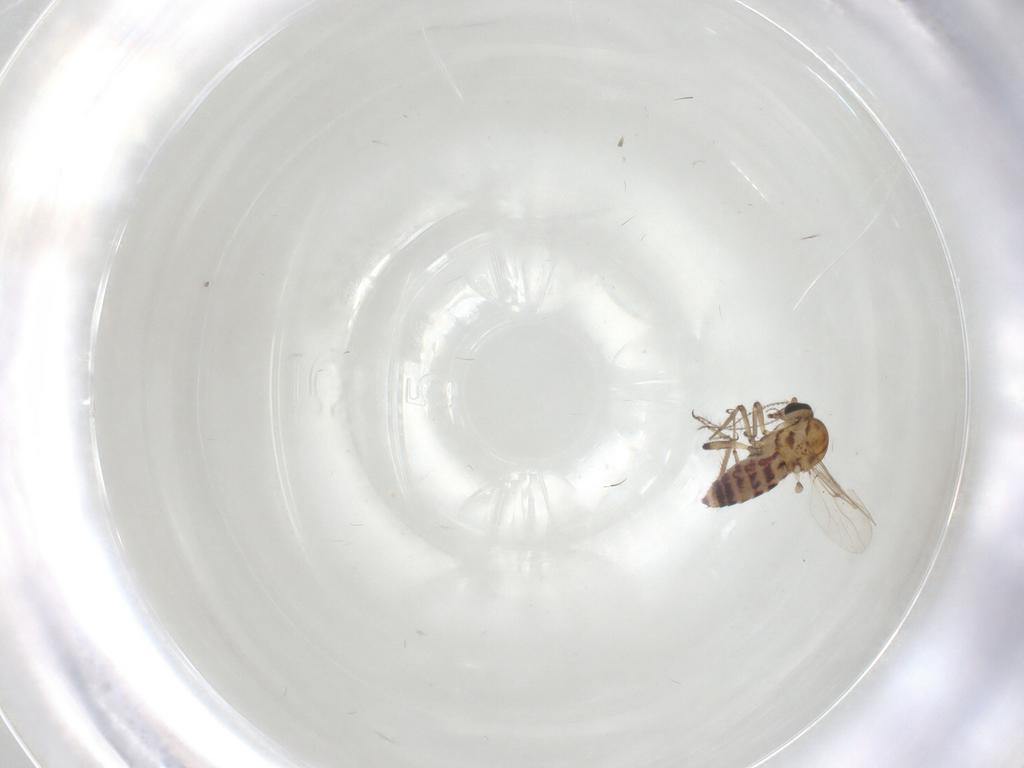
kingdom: Animalia
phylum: Arthropoda
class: Insecta
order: Diptera
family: Ceratopogonidae
